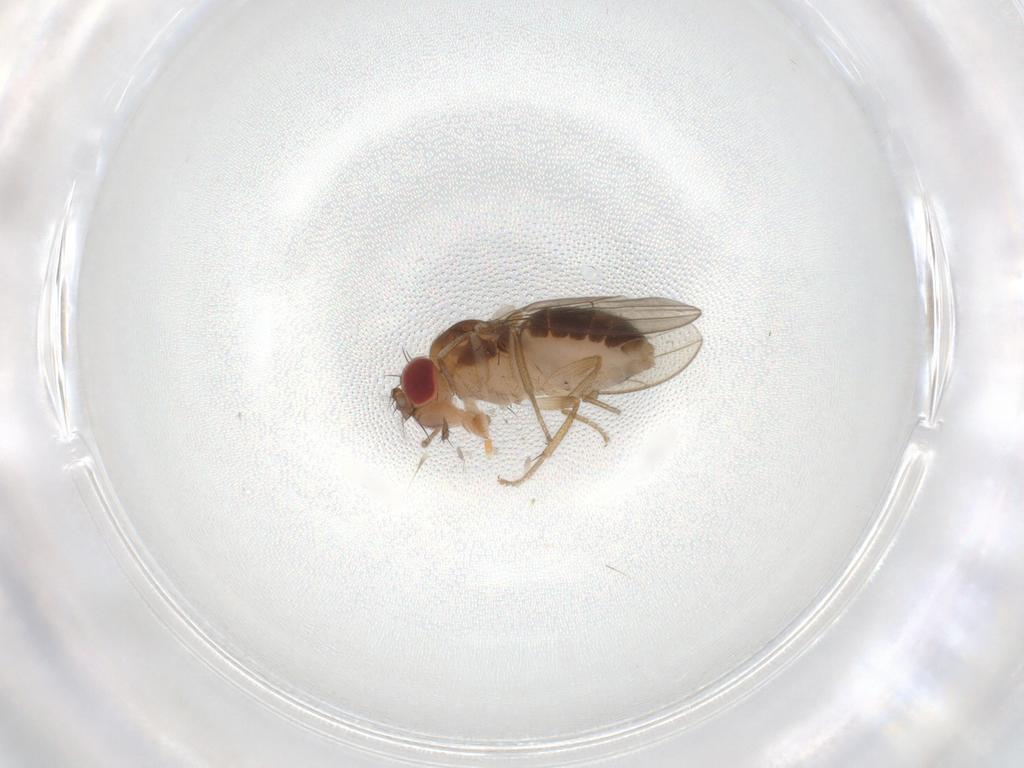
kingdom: Animalia
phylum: Arthropoda
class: Insecta
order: Diptera
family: Drosophilidae
